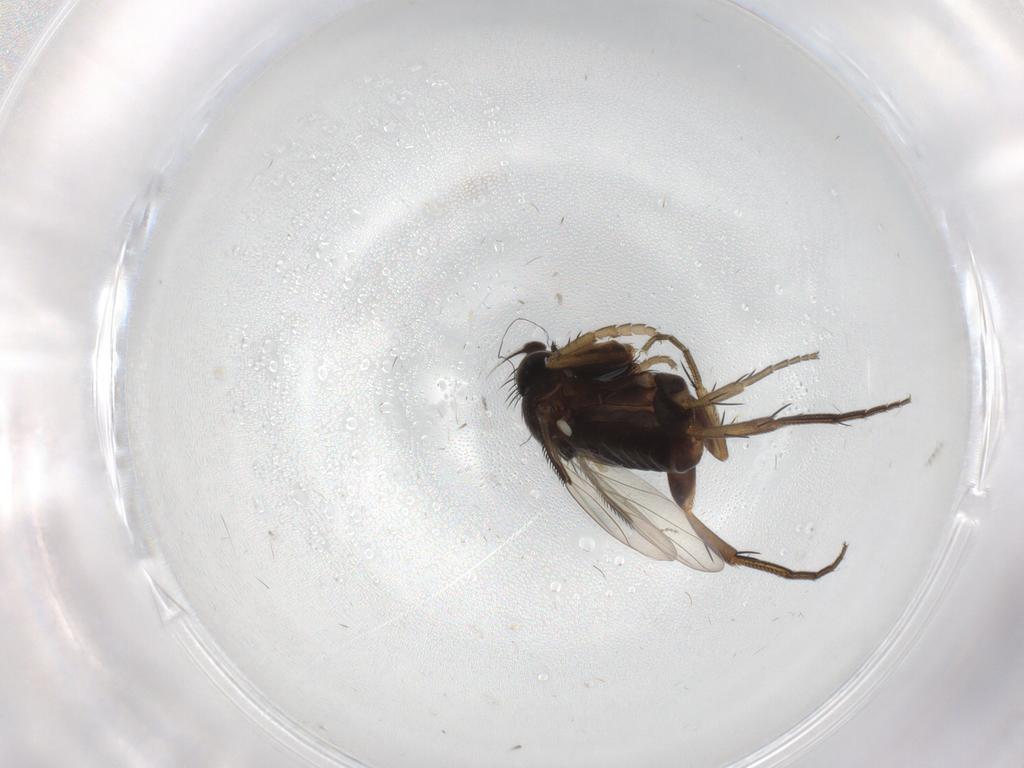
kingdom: Animalia
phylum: Arthropoda
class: Insecta
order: Diptera
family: Phoridae
